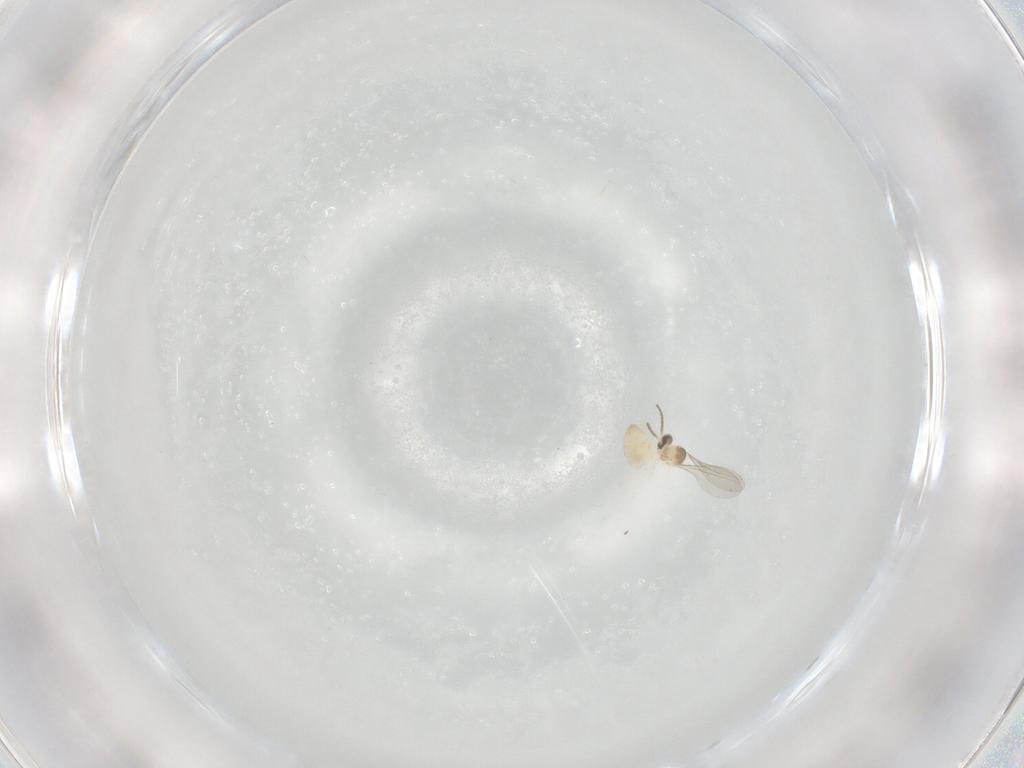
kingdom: Animalia
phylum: Arthropoda
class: Insecta
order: Diptera
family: Cecidomyiidae
